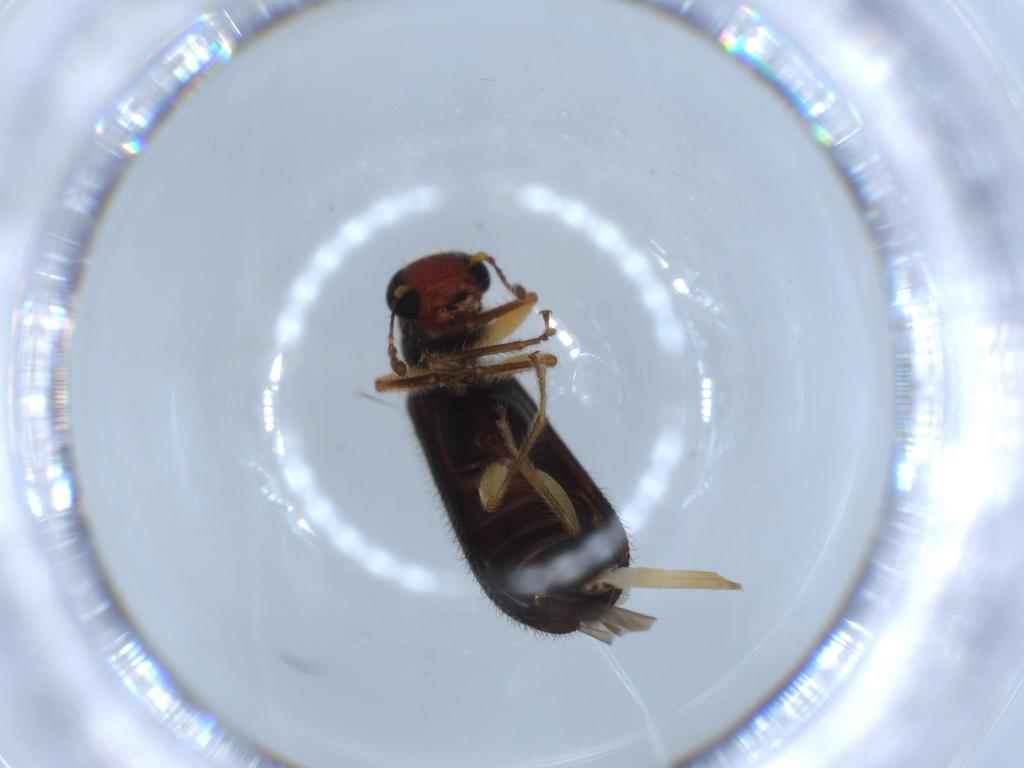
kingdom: Animalia
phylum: Arthropoda
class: Insecta
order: Coleoptera
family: Cleridae
